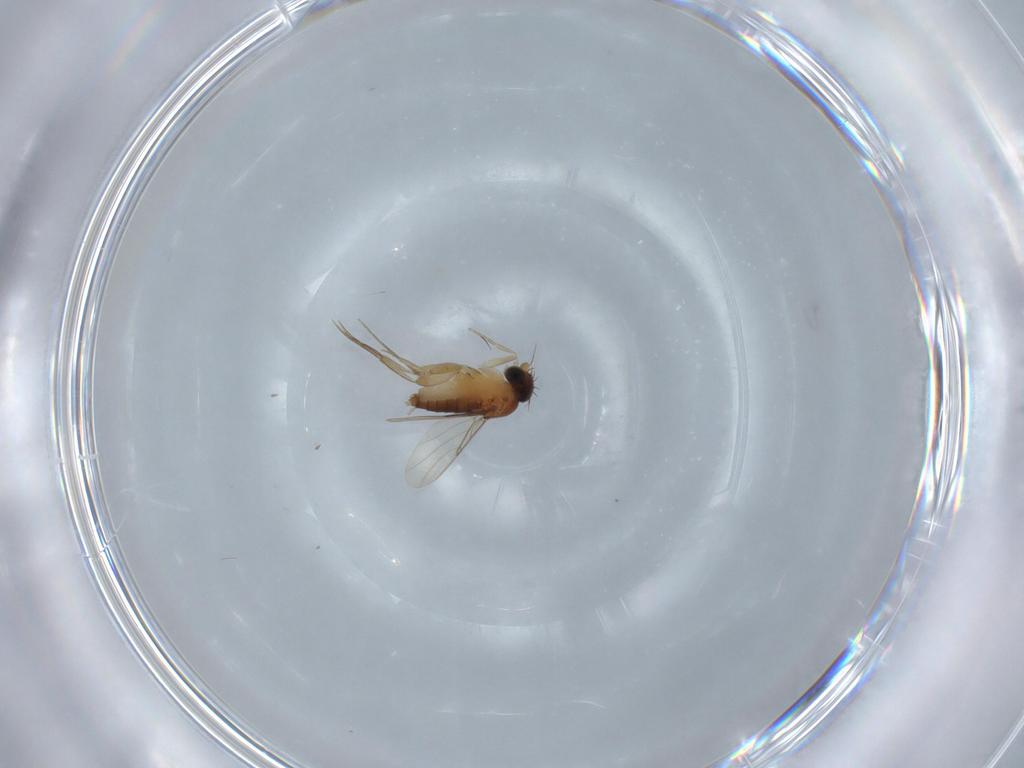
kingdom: Animalia
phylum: Arthropoda
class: Insecta
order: Diptera
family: Phoridae
